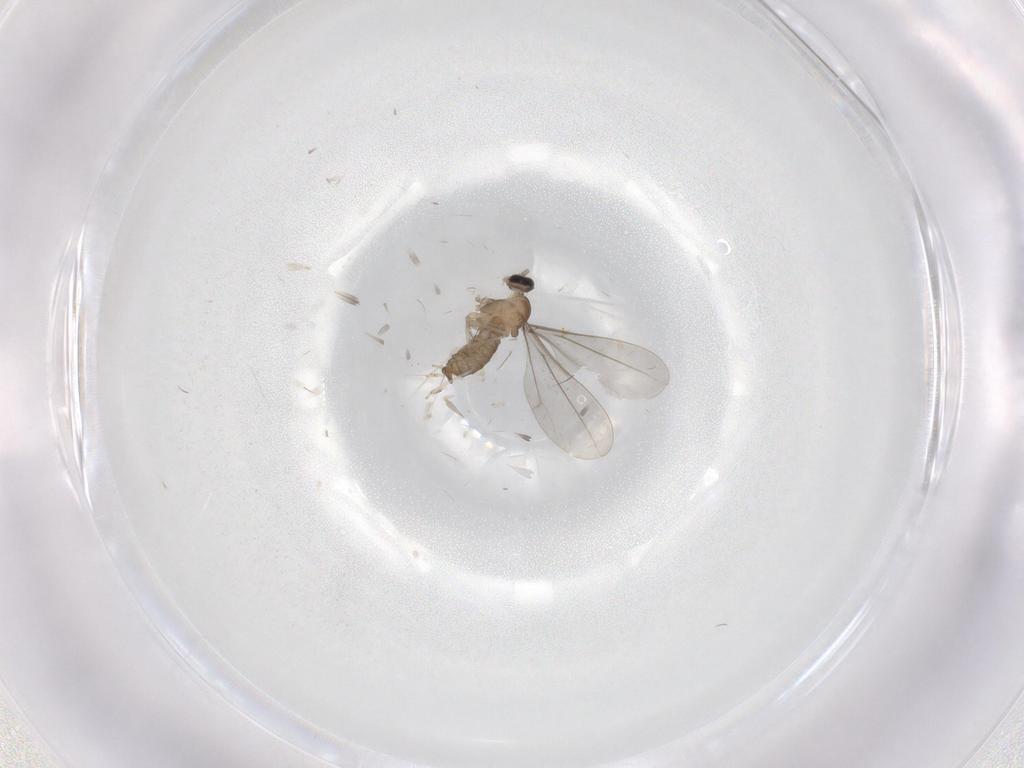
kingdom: Animalia
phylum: Arthropoda
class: Insecta
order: Diptera
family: Cecidomyiidae
